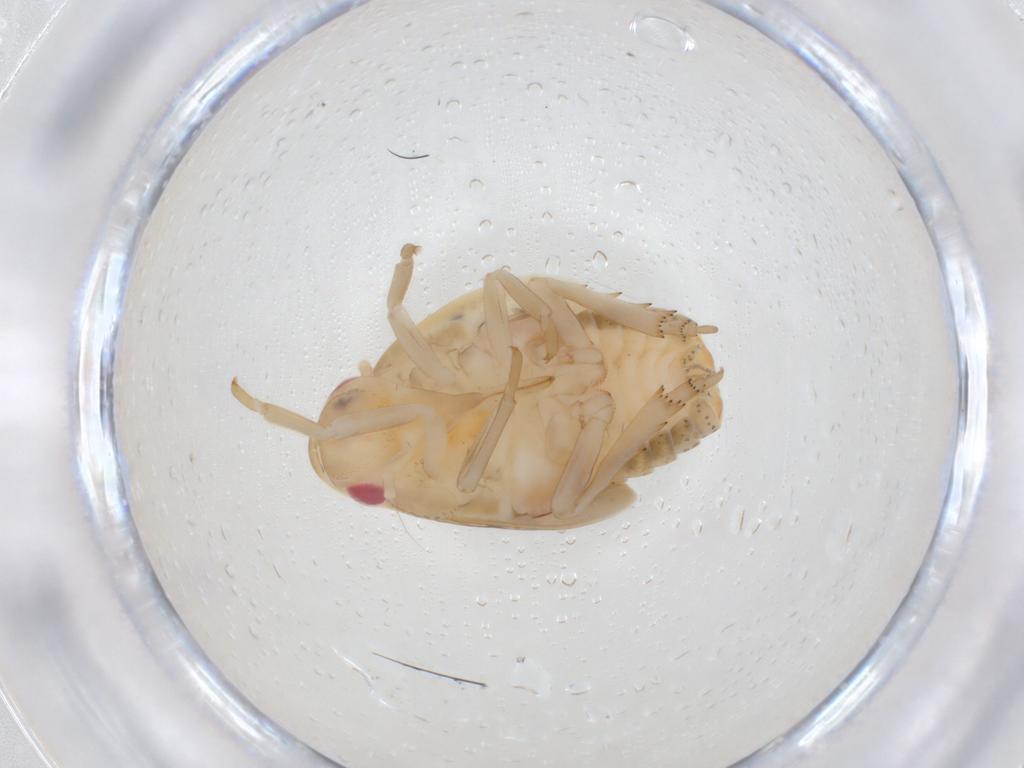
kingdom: Animalia
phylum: Arthropoda
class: Insecta
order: Hemiptera
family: Flatidae
